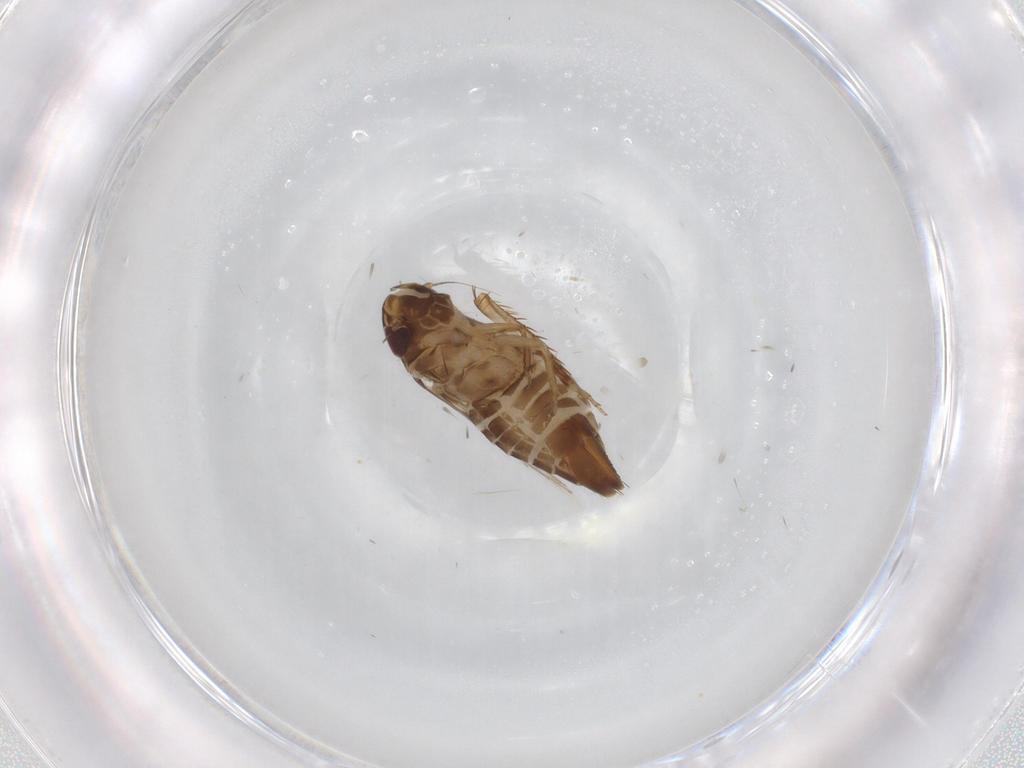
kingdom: Animalia
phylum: Arthropoda
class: Insecta
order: Hemiptera
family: Cicadellidae
